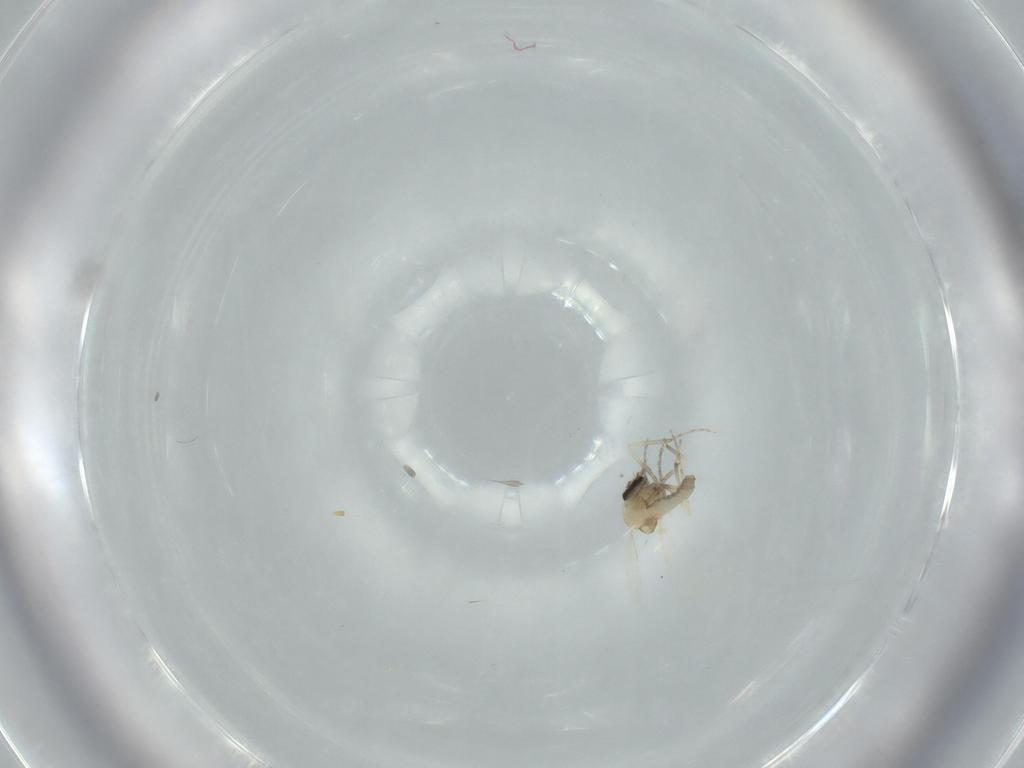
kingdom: Animalia
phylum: Arthropoda
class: Insecta
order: Diptera
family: Ceratopogonidae
